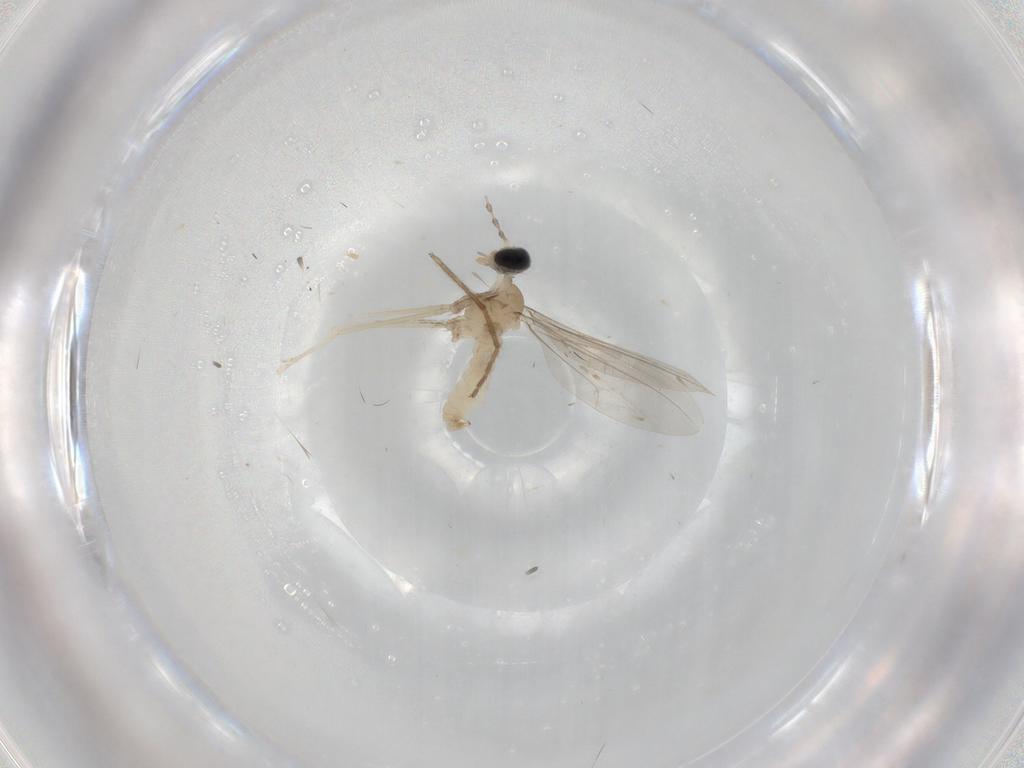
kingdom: Animalia
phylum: Arthropoda
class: Insecta
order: Diptera
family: Cecidomyiidae
